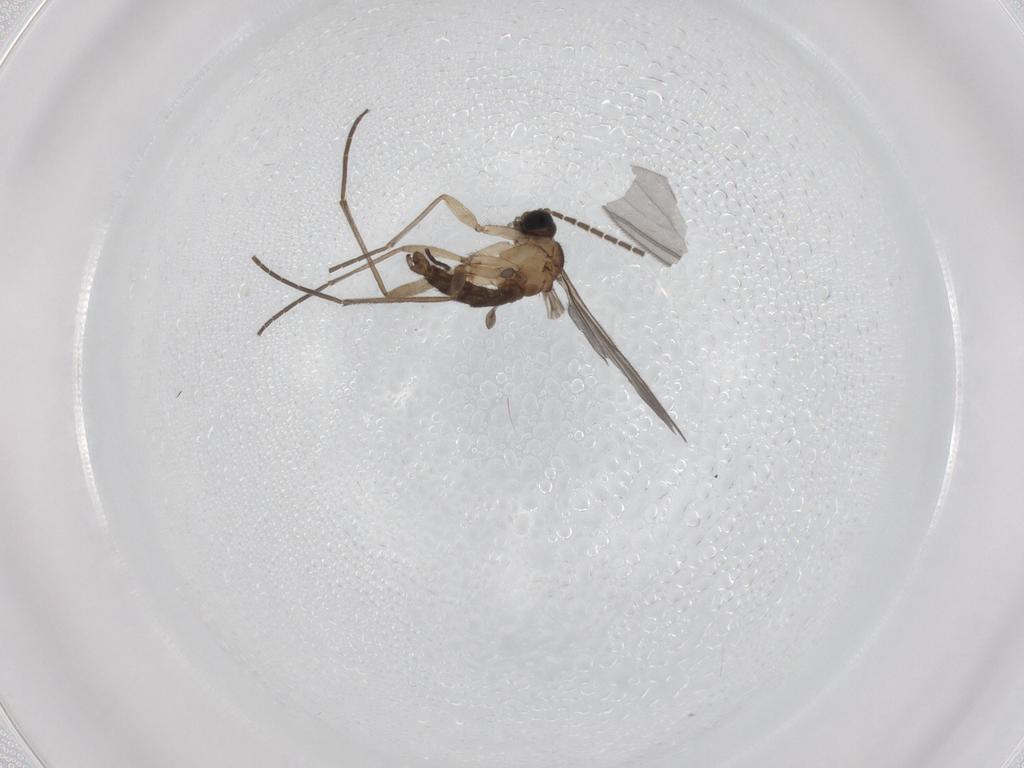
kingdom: Animalia
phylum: Arthropoda
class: Insecta
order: Diptera
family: Sciaridae
